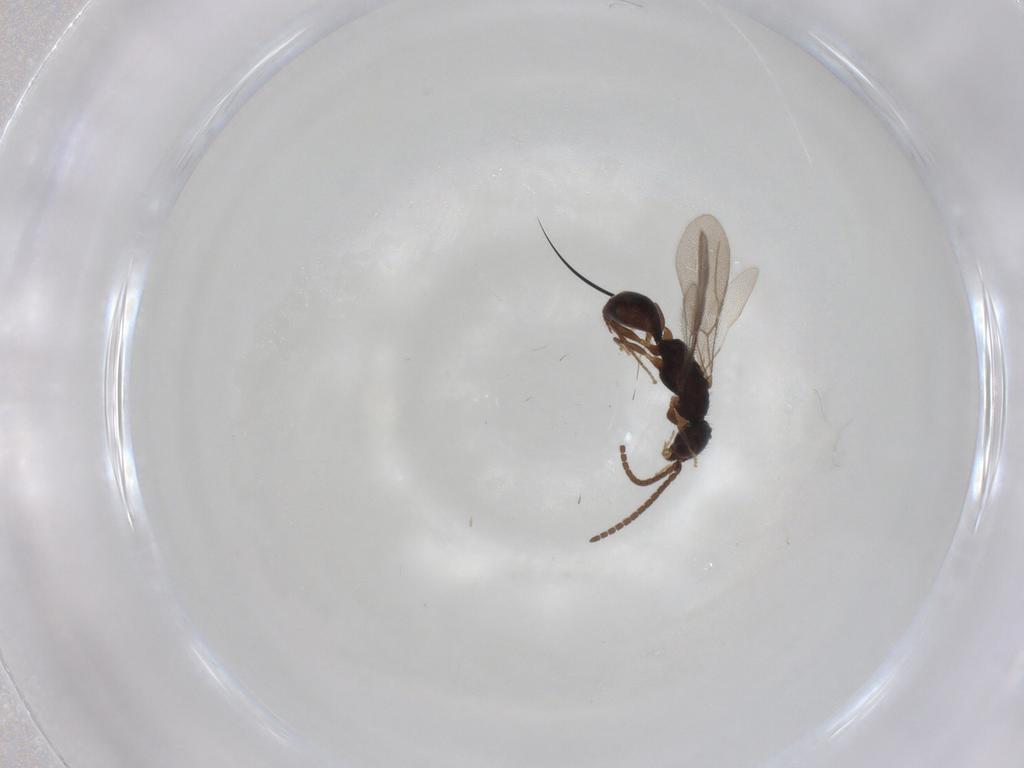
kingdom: Animalia
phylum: Arthropoda
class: Insecta
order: Hymenoptera
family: Bethylidae
